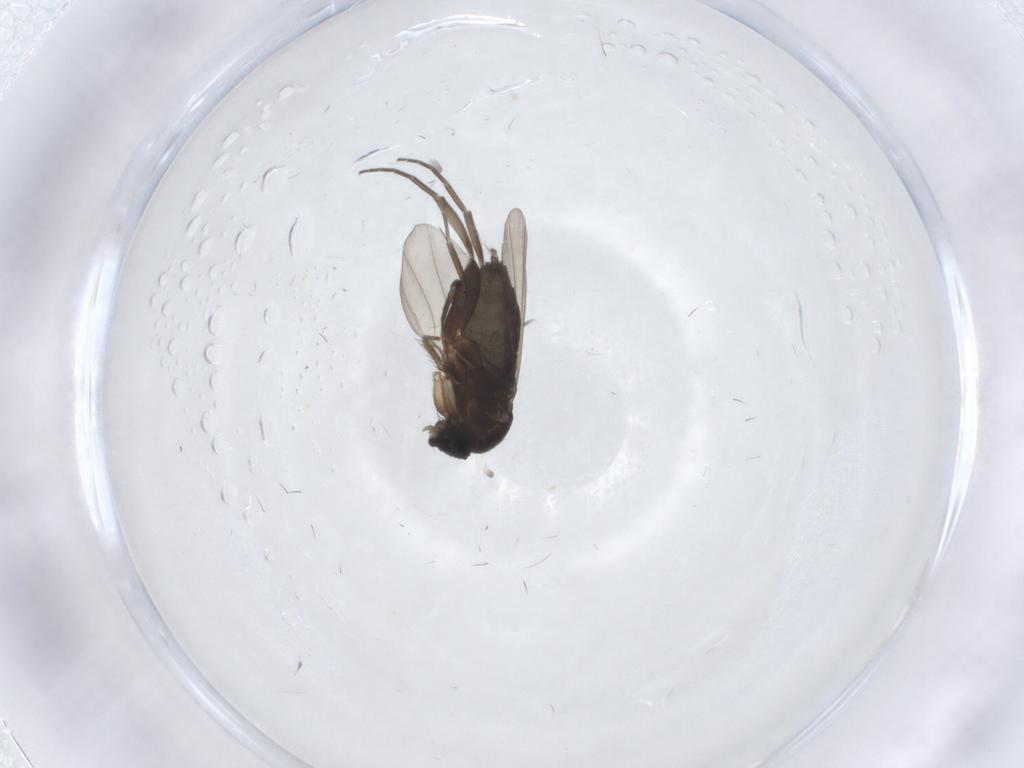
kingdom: Animalia
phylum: Arthropoda
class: Insecta
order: Diptera
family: Phoridae
